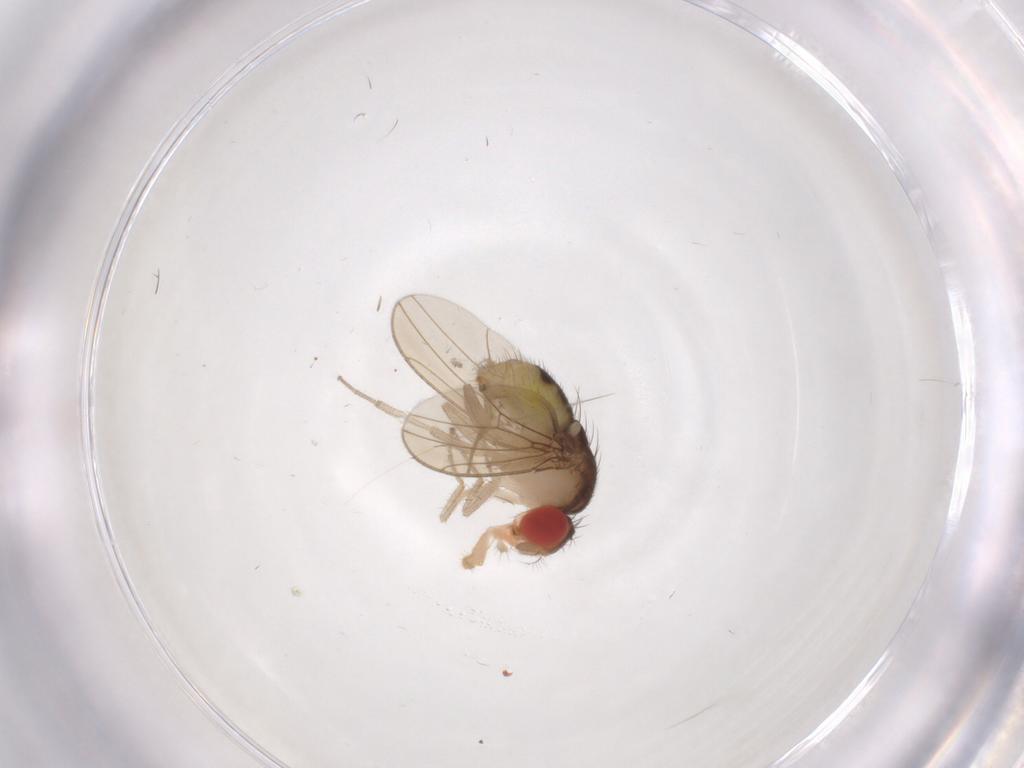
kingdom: Animalia
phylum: Arthropoda
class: Insecta
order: Diptera
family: Drosophilidae
